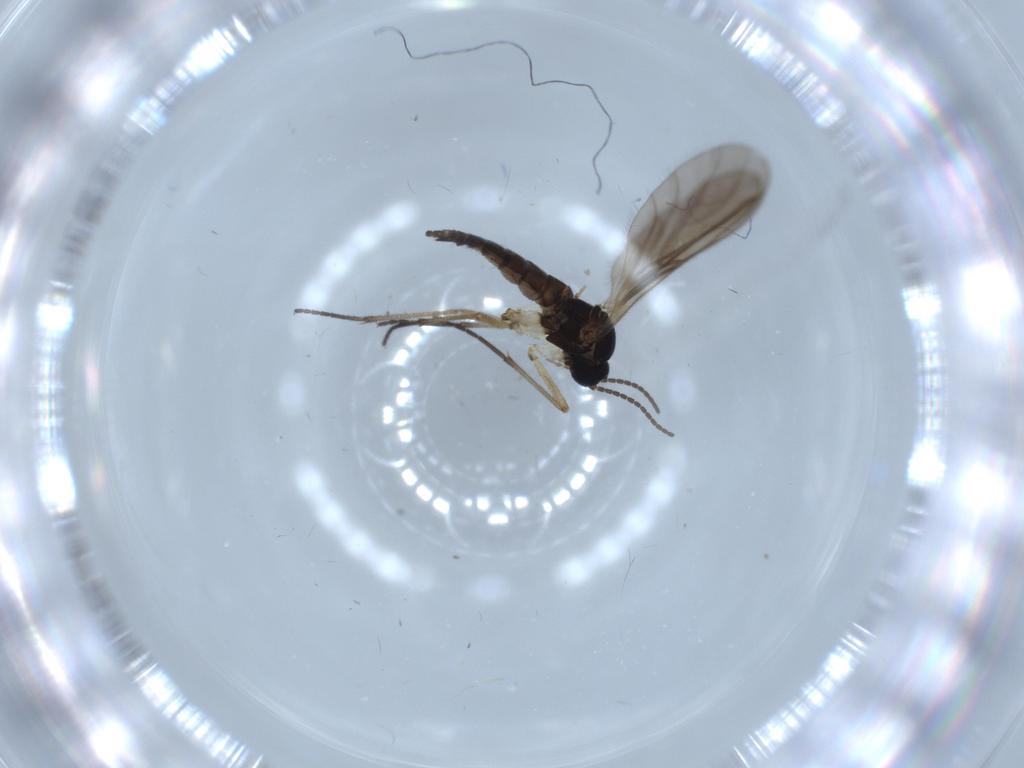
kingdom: Animalia
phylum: Arthropoda
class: Insecta
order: Diptera
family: Sciaridae
